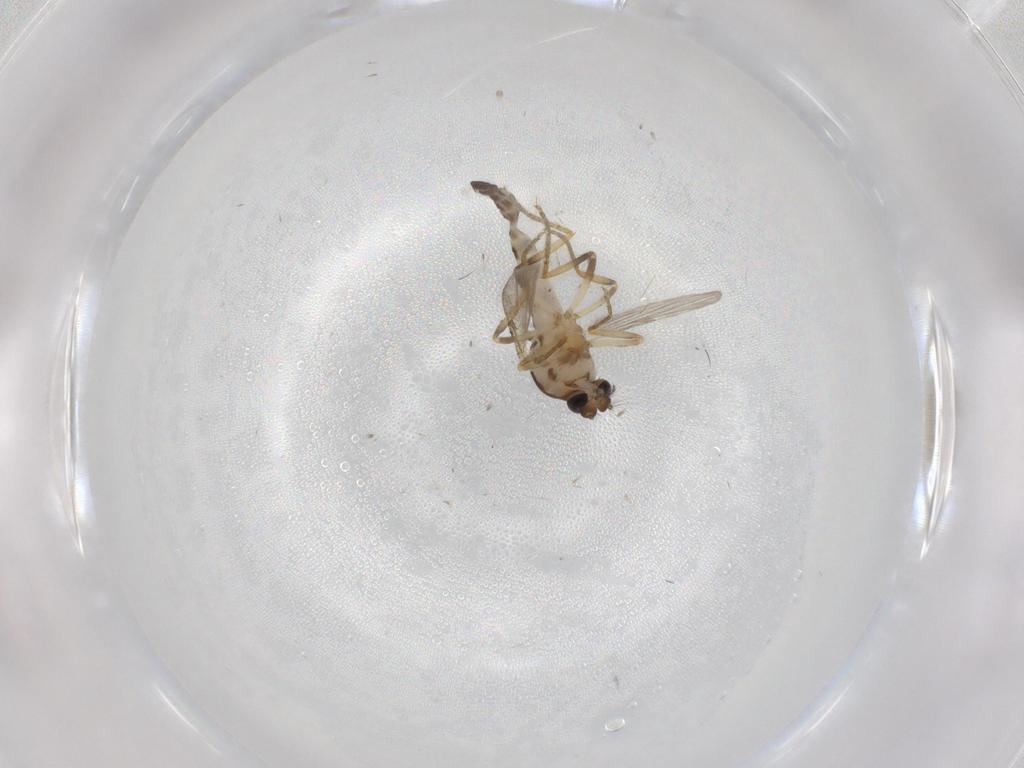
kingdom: Animalia
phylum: Arthropoda
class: Insecta
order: Diptera
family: Ceratopogonidae
